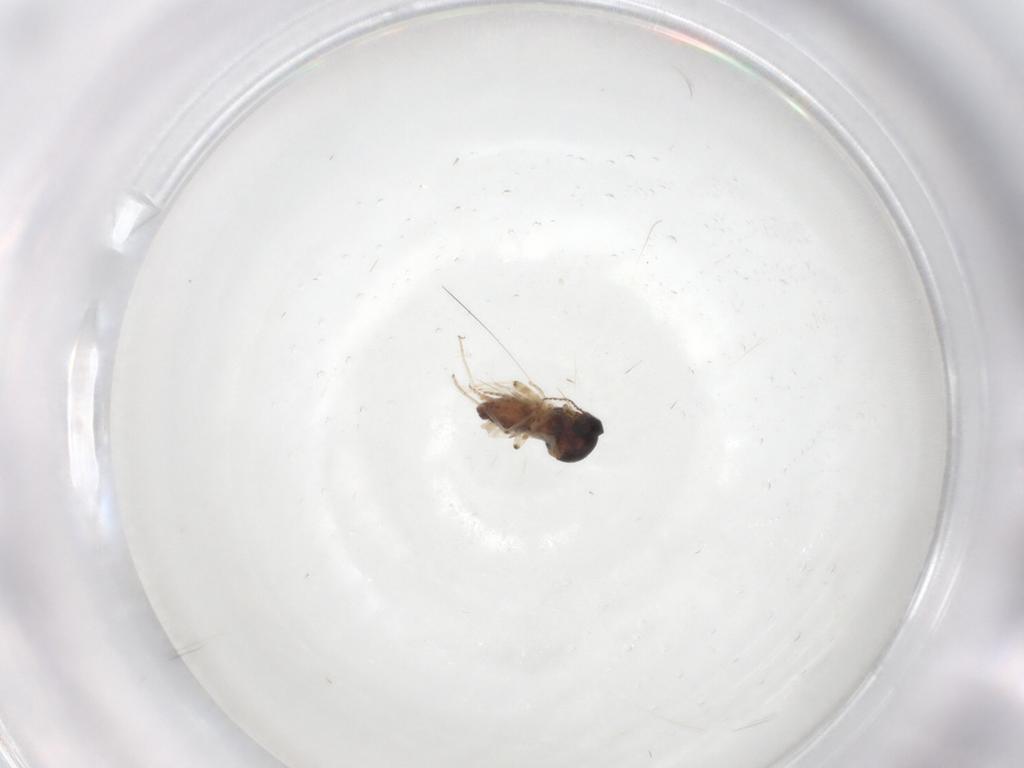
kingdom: Animalia
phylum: Arthropoda
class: Insecta
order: Diptera
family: Ceratopogonidae
